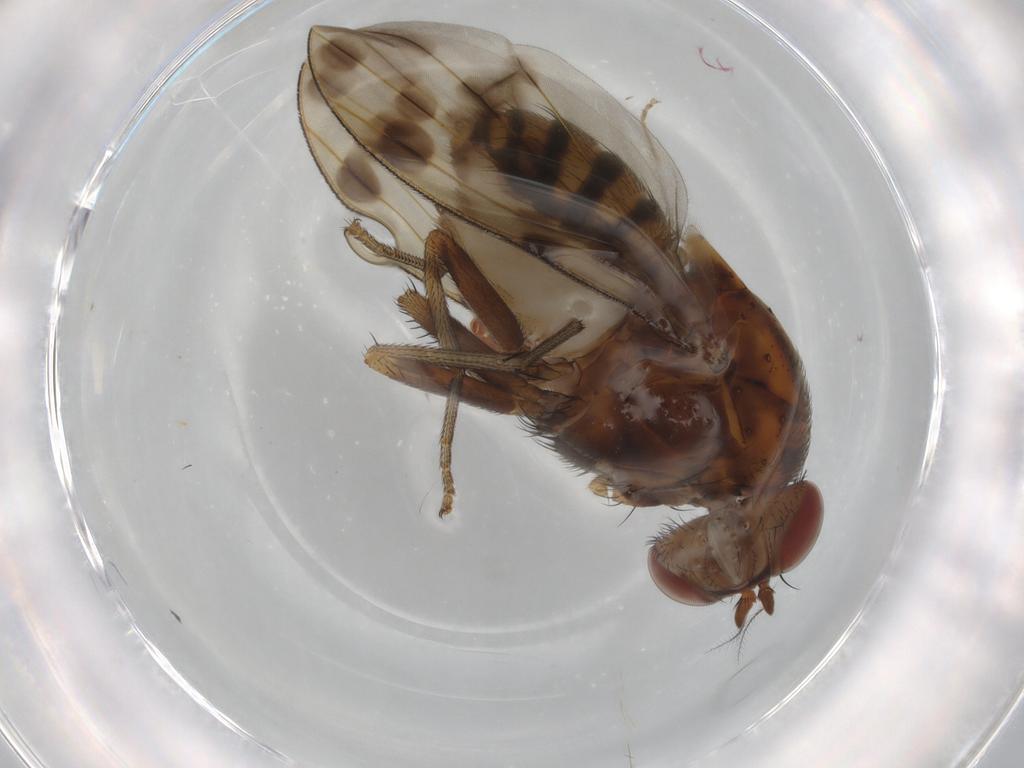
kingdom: Animalia
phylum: Arthropoda
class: Insecta
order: Diptera
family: Chironomidae
